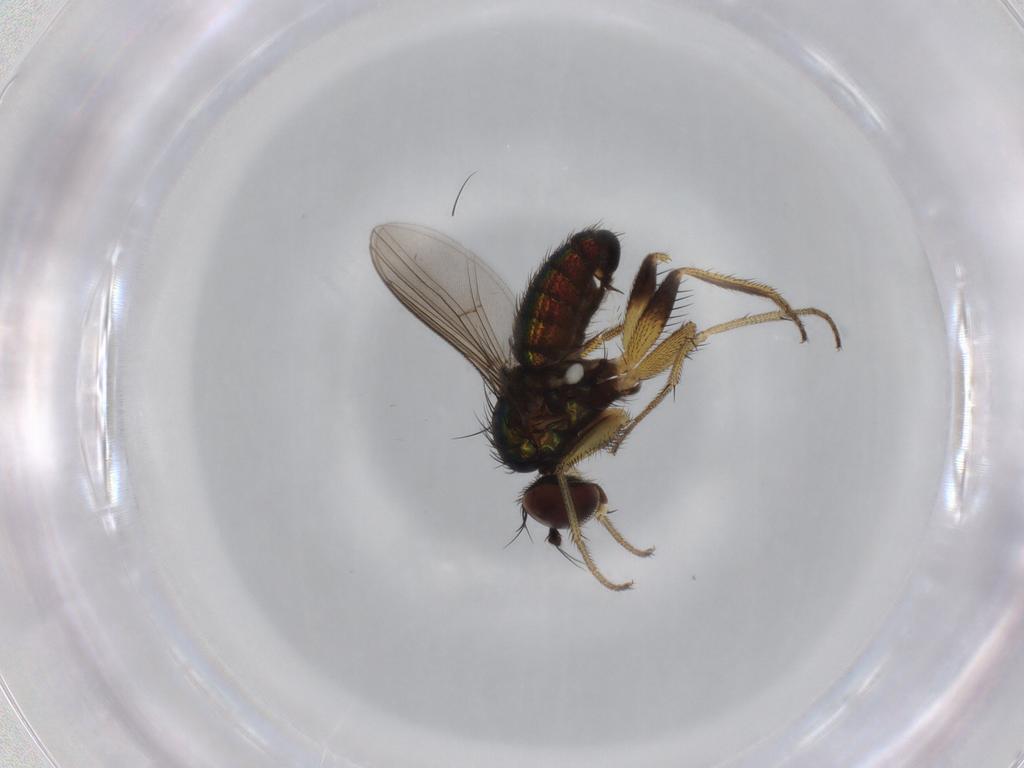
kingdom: Animalia
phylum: Arthropoda
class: Insecta
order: Diptera
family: Dolichopodidae
